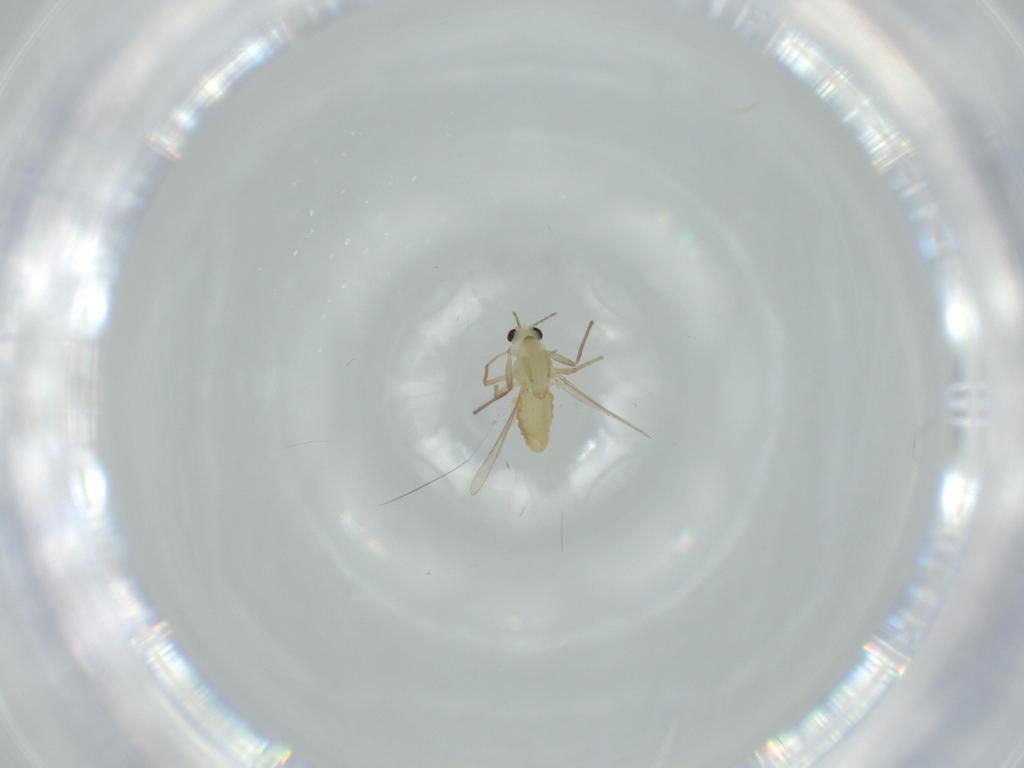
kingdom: Animalia
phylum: Arthropoda
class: Insecta
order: Diptera
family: Chironomidae
